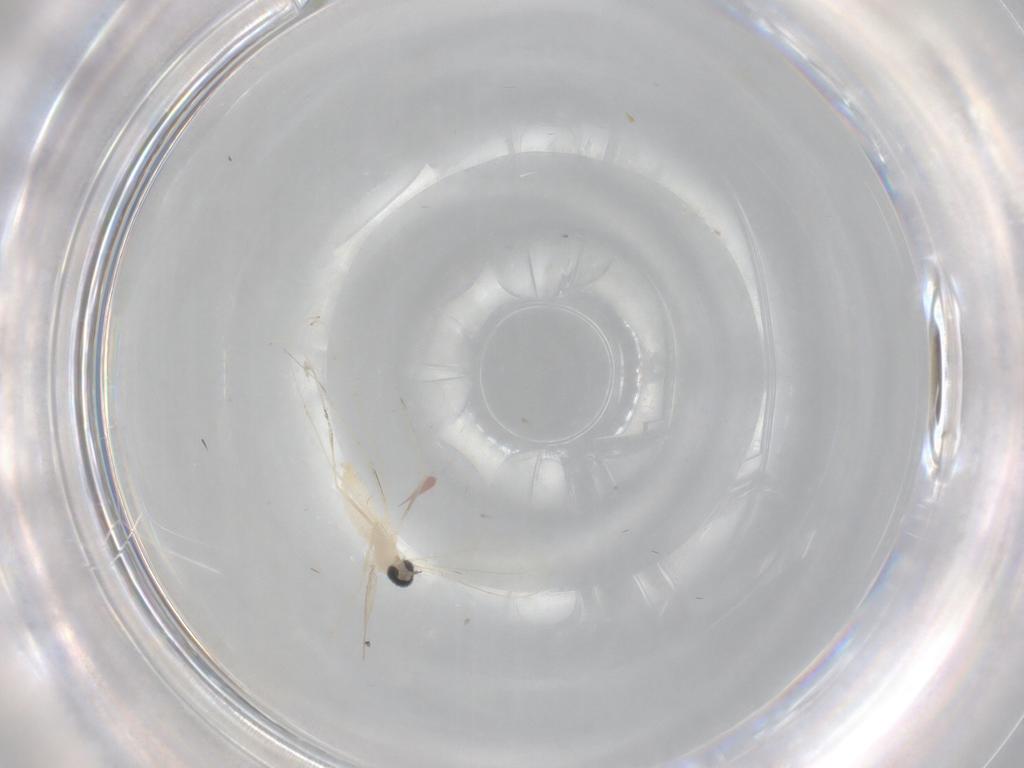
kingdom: Animalia
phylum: Arthropoda
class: Insecta
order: Diptera
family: Cecidomyiidae
